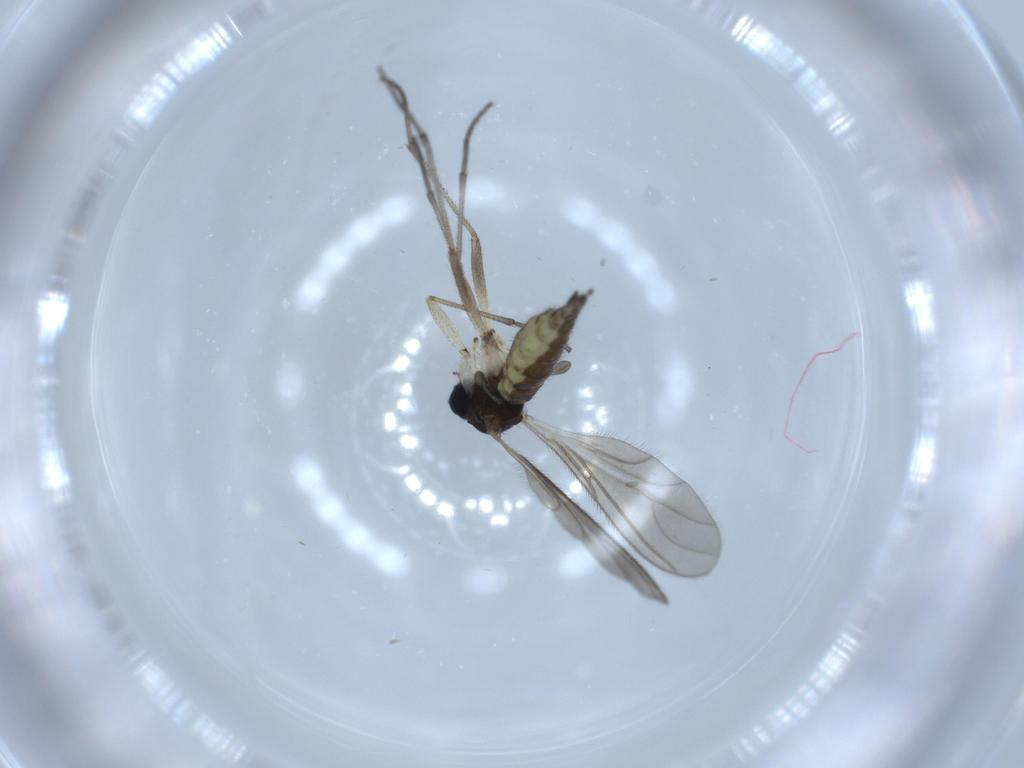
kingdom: Animalia
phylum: Arthropoda
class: Insecta
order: Diptera
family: Sciaridae
